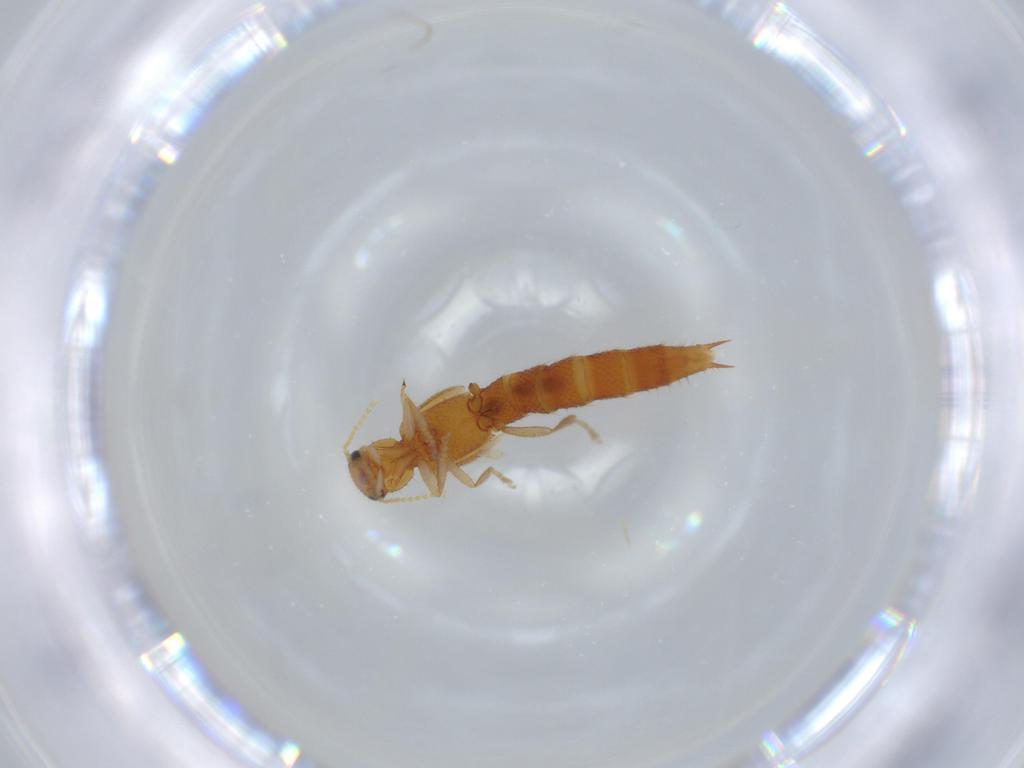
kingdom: Animalia
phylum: Arthropoda
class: Insecta
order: Coleoptera
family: Staphylinidae
